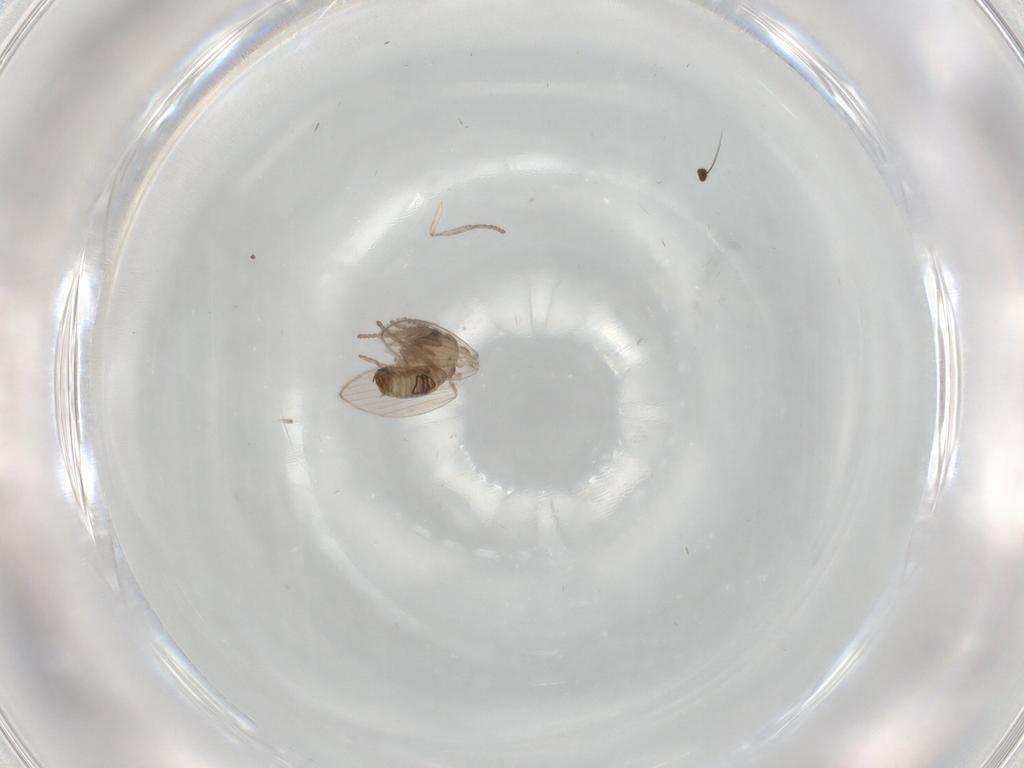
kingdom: Animalia
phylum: Arthropoda
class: Insecta
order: Diptera
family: Psychodidae
